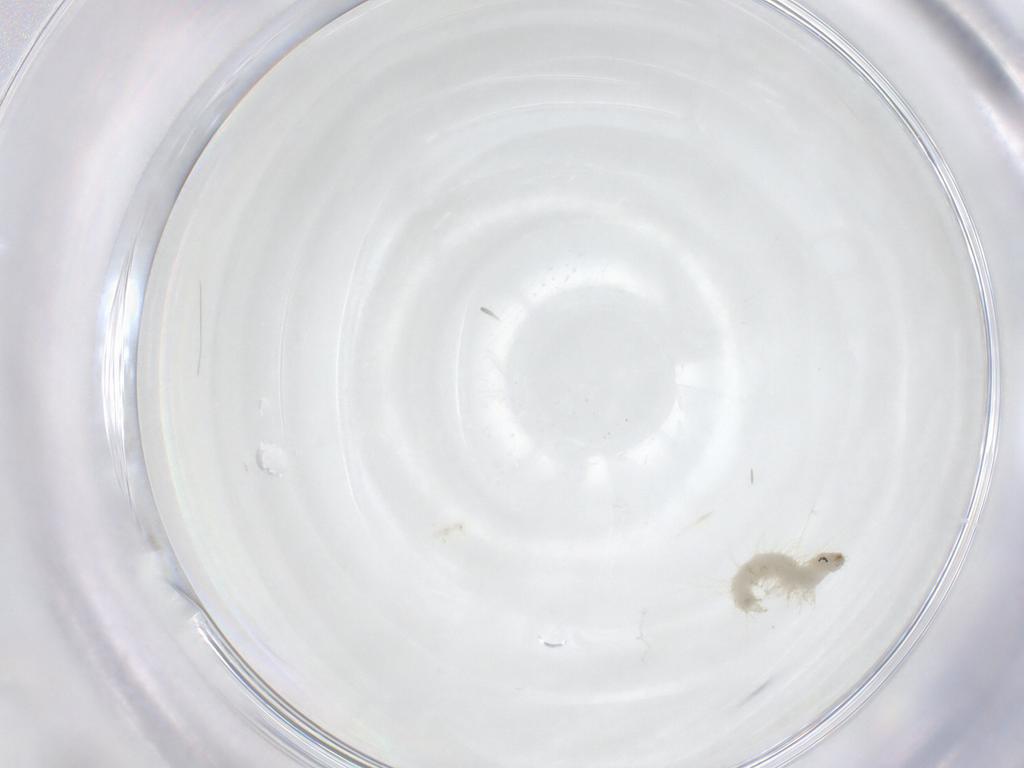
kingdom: Animalia
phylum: Arthropoda
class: Insecta
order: Lepidoptera
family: Crambidae
